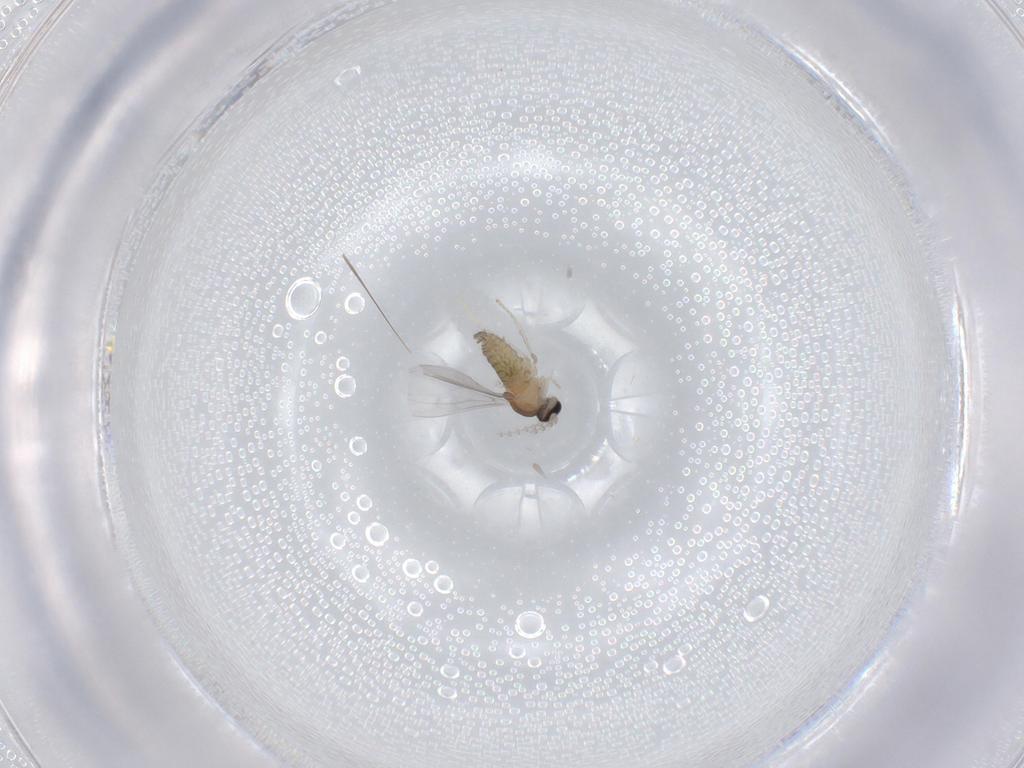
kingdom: Animalia
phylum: Arthropoda
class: Insecta
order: Diptera
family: Cecidomyiidae
